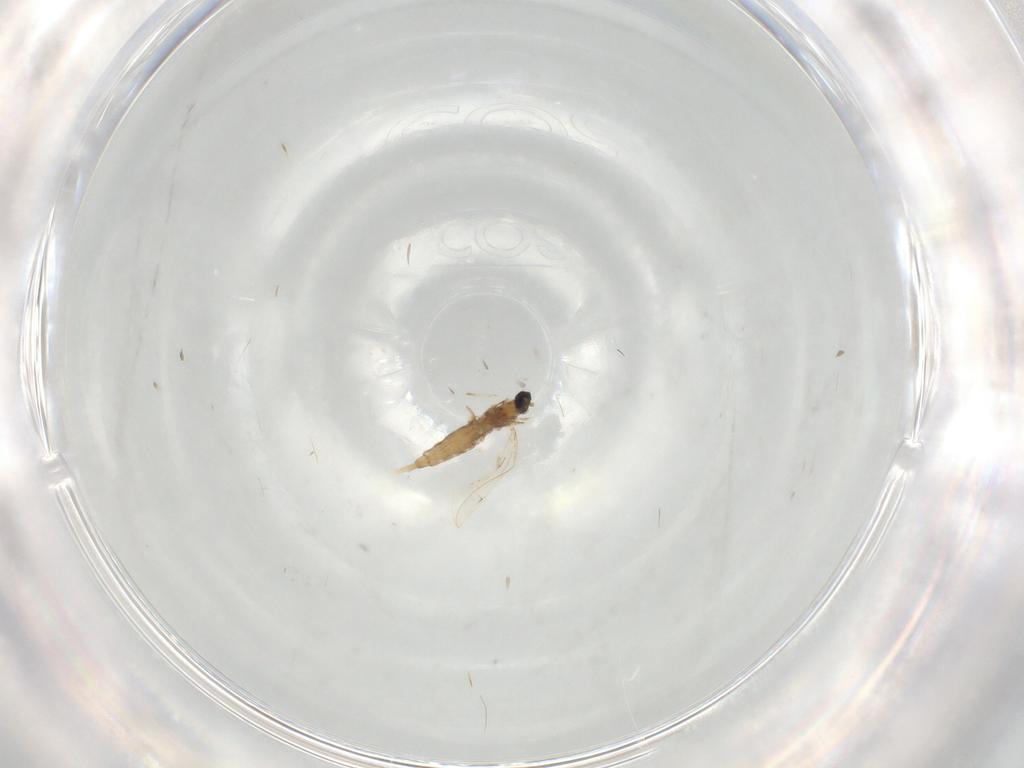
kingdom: Animalia
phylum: Arthropoda
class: Insecta
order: Diptera
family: Cecidomyiidae
